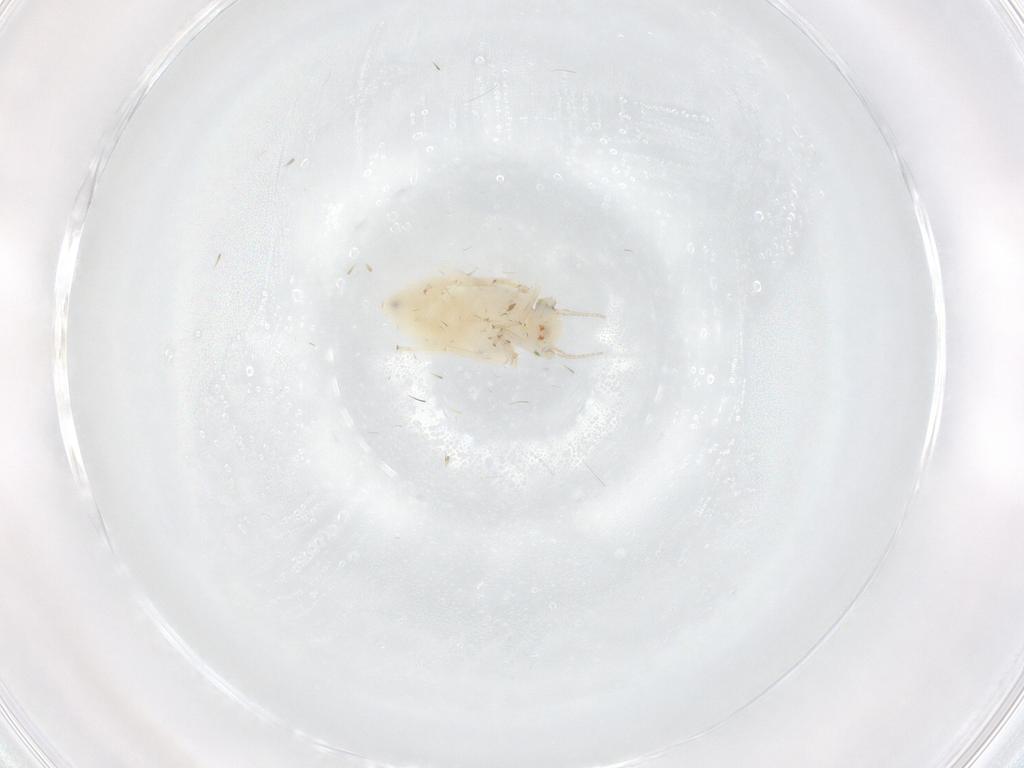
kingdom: Animalia
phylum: Arthropoda
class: Insecta
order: Psocodea
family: Lepidopsocidae
